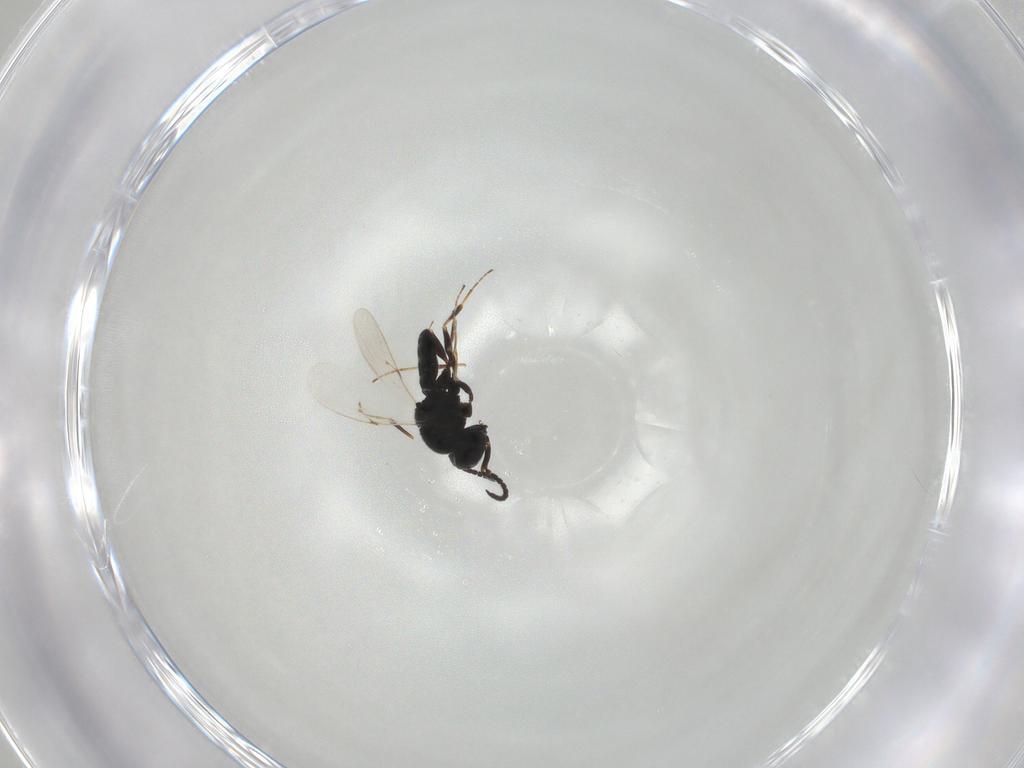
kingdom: Animalia
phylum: Arthropoda
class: Insecta
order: Hymenoptera
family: Scelionidae
